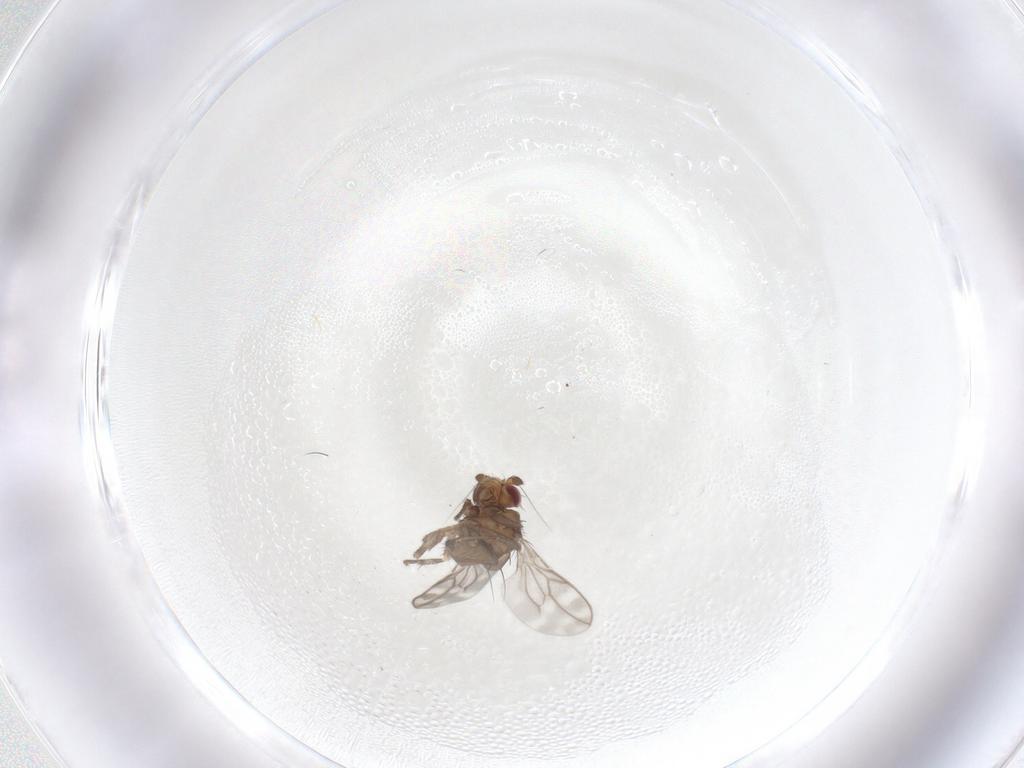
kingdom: Animalia
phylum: Arthropoda
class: Insecta
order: Diptera
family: Sphaeroceridae
